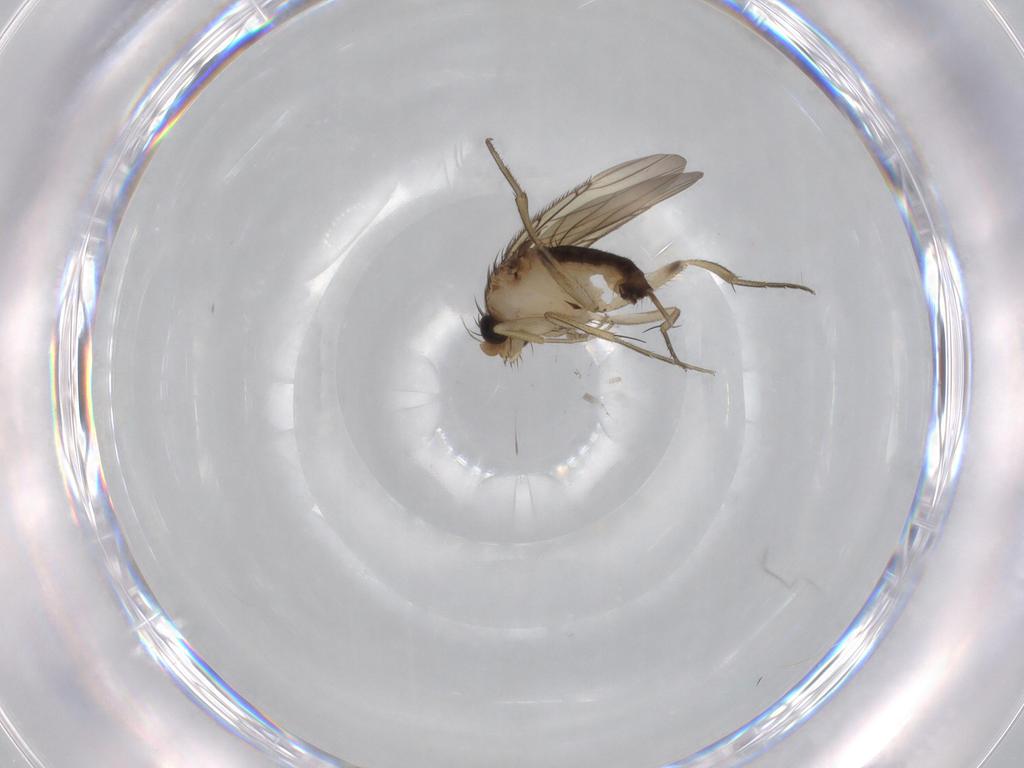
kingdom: Animalia
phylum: Arthropoda
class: Insecta
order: Diptera
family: Phoridae
